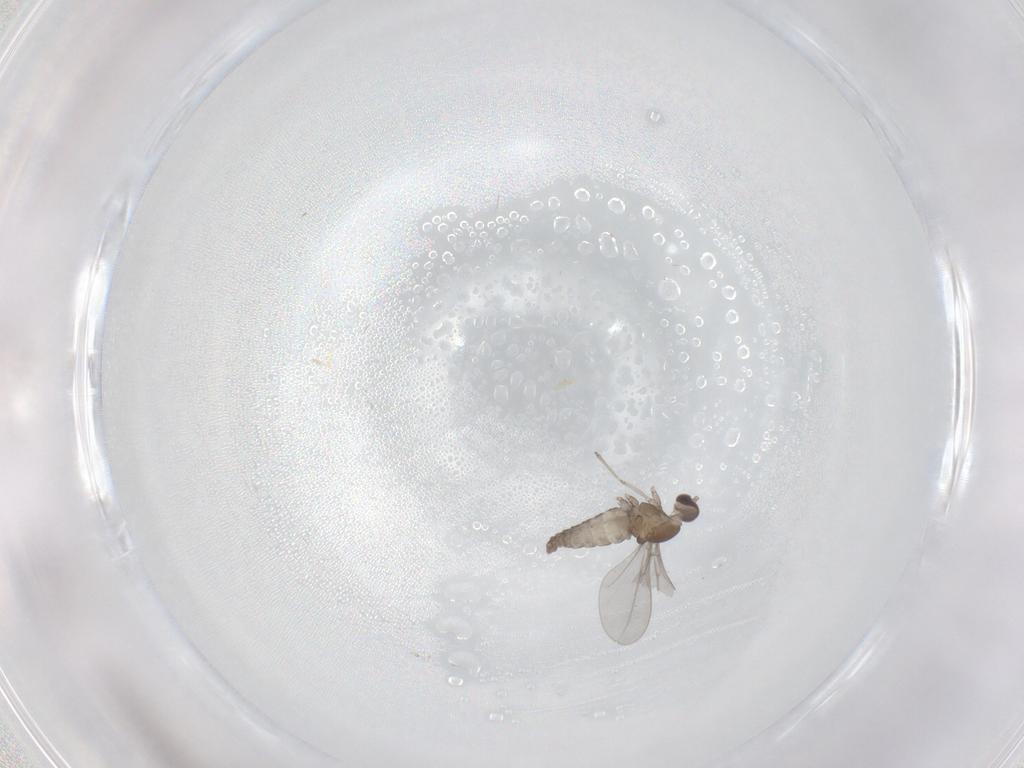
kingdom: Animalia
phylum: Arthropoda
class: Insecta
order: Diptera
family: Cecidomyiidae
